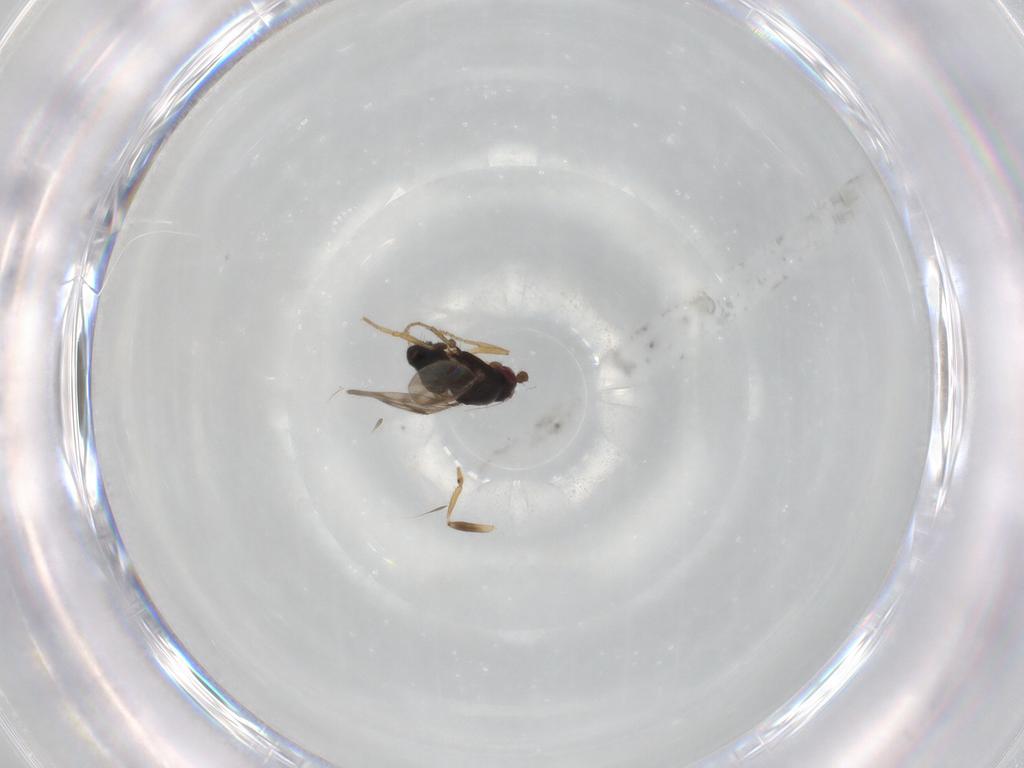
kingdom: Animalia
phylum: Arthropoda
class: Insecta
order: Diptera
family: Sphaeroceridae
